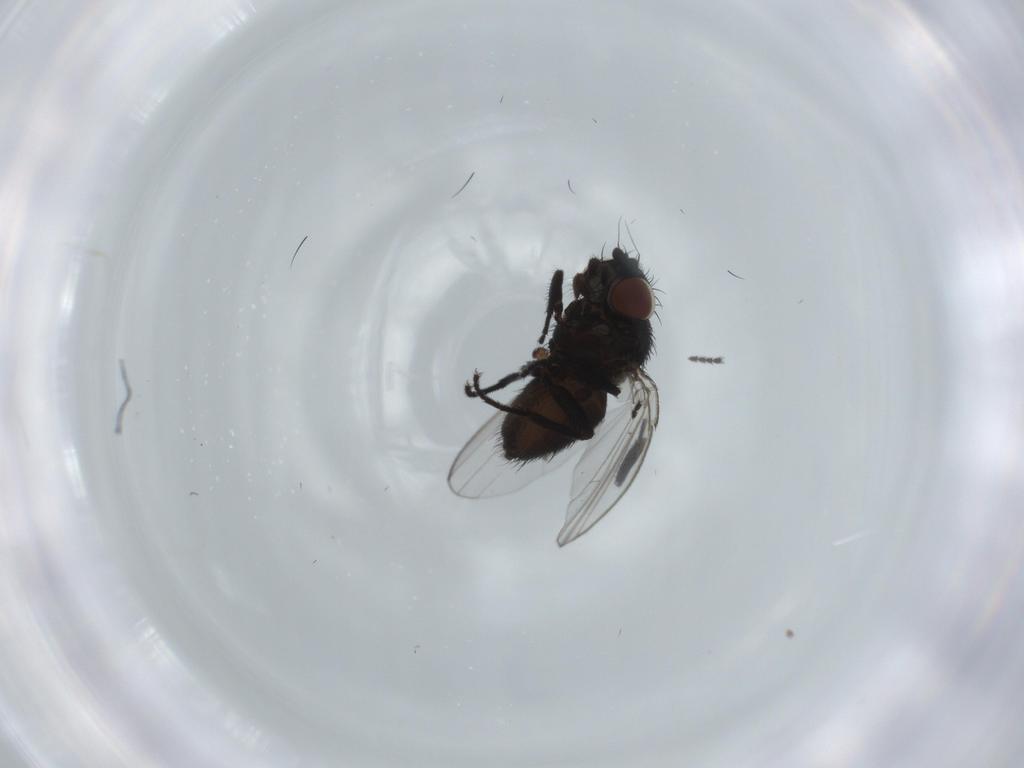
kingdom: Animalia
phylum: Arthropoda
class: Insecta
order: Diptera
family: Milichiidae
